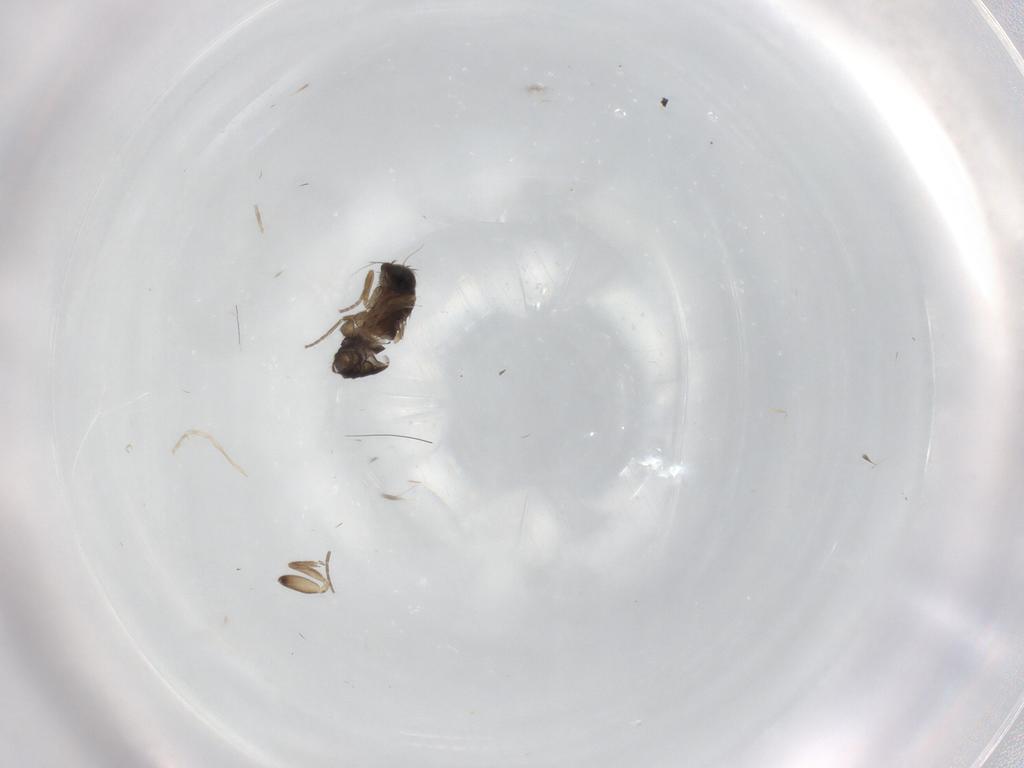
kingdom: Animalia
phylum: Arthropoda
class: Insecta
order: Diptera
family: Phoridae
